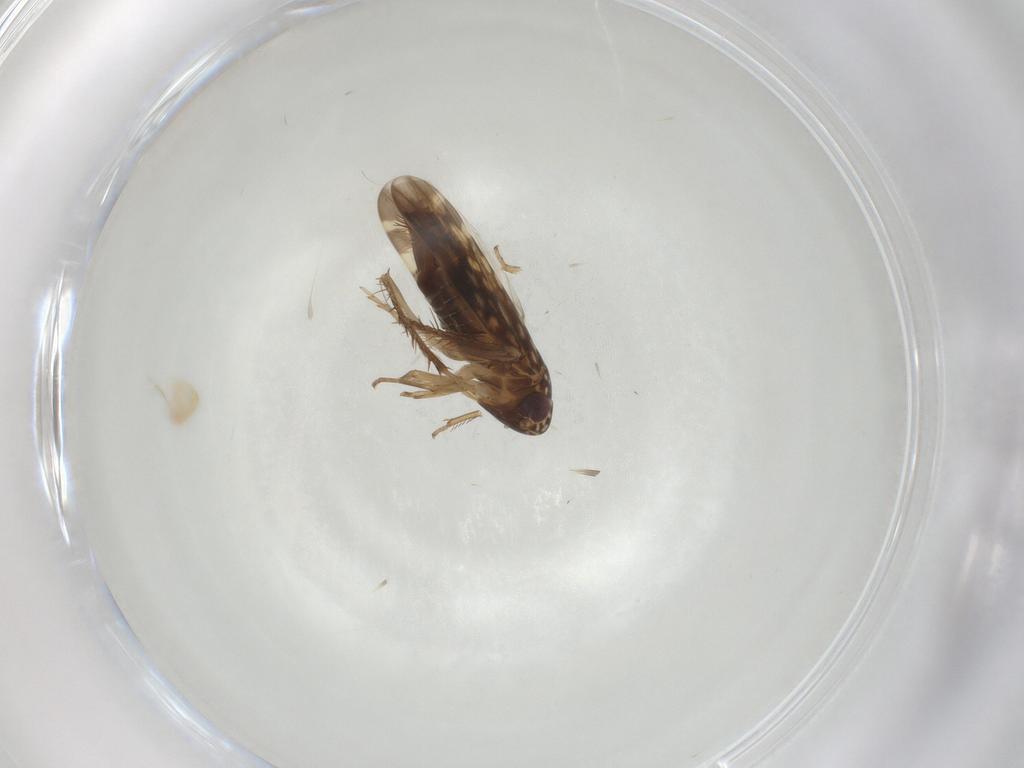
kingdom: Animalia
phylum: Arthropoda
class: Insecta
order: Hemiptera
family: Cicadellidae
